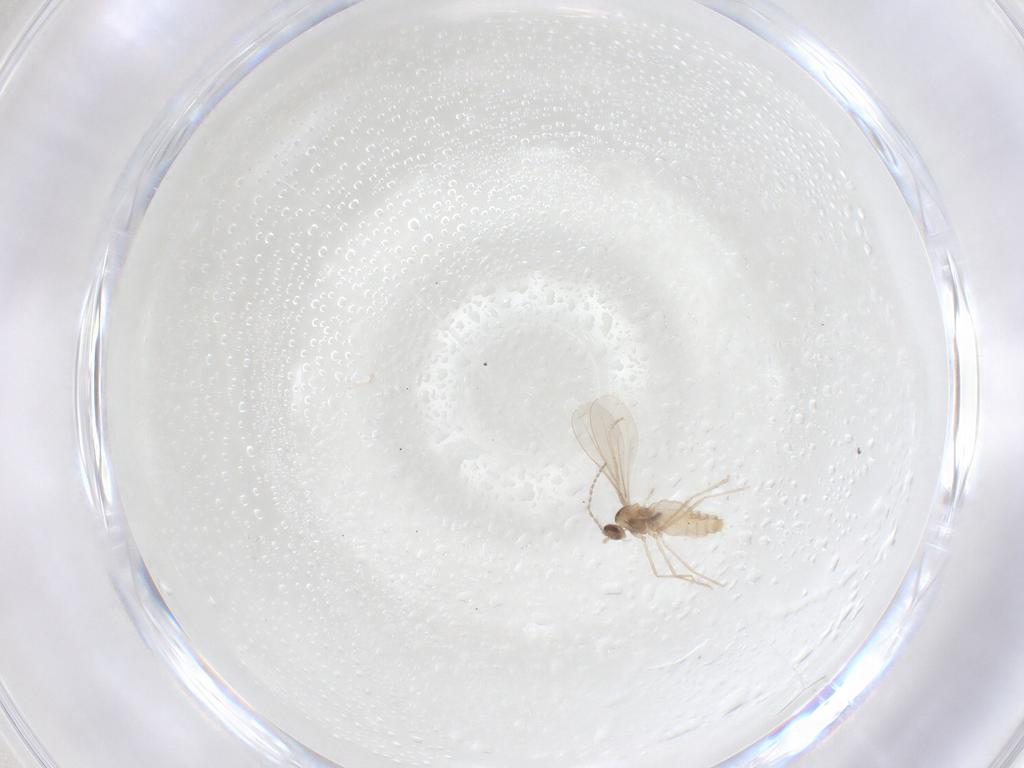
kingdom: Animalia
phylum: Arthropoda
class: Insecta
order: Diptera
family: Cecidomyiidae
